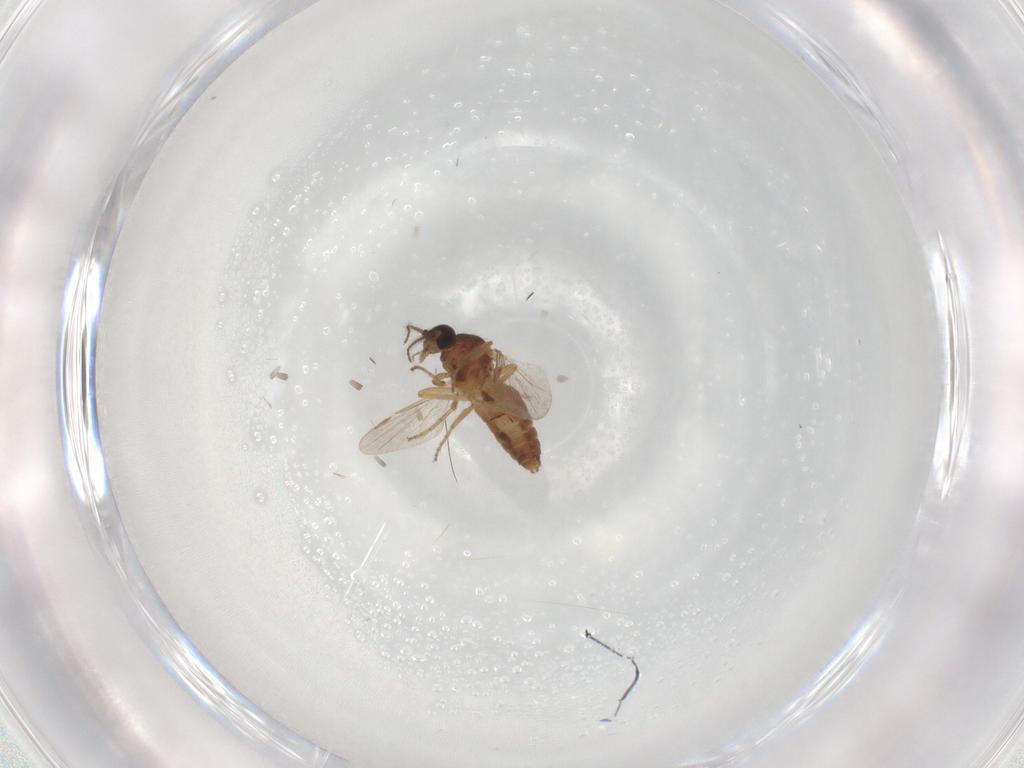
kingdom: Animalia
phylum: Arthropoda
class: Insecta
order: Diptera
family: Ceratopogonidae
